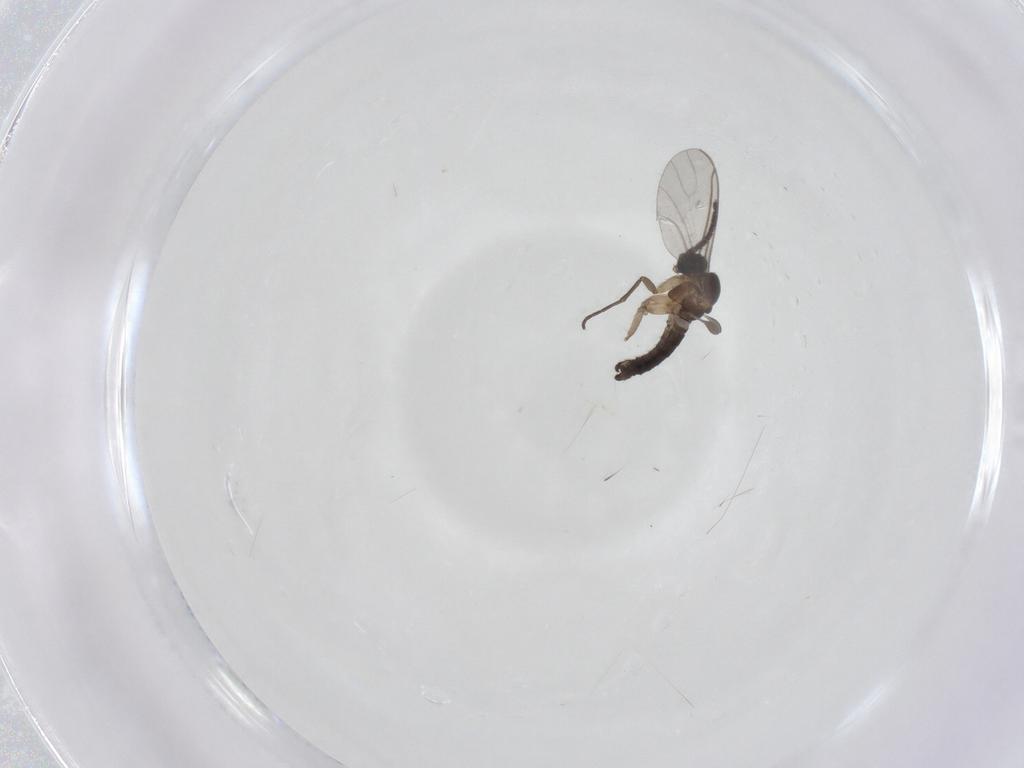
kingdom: Animalia
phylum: Arthropoda
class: Insecta
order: Diptera
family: Sciaridae
